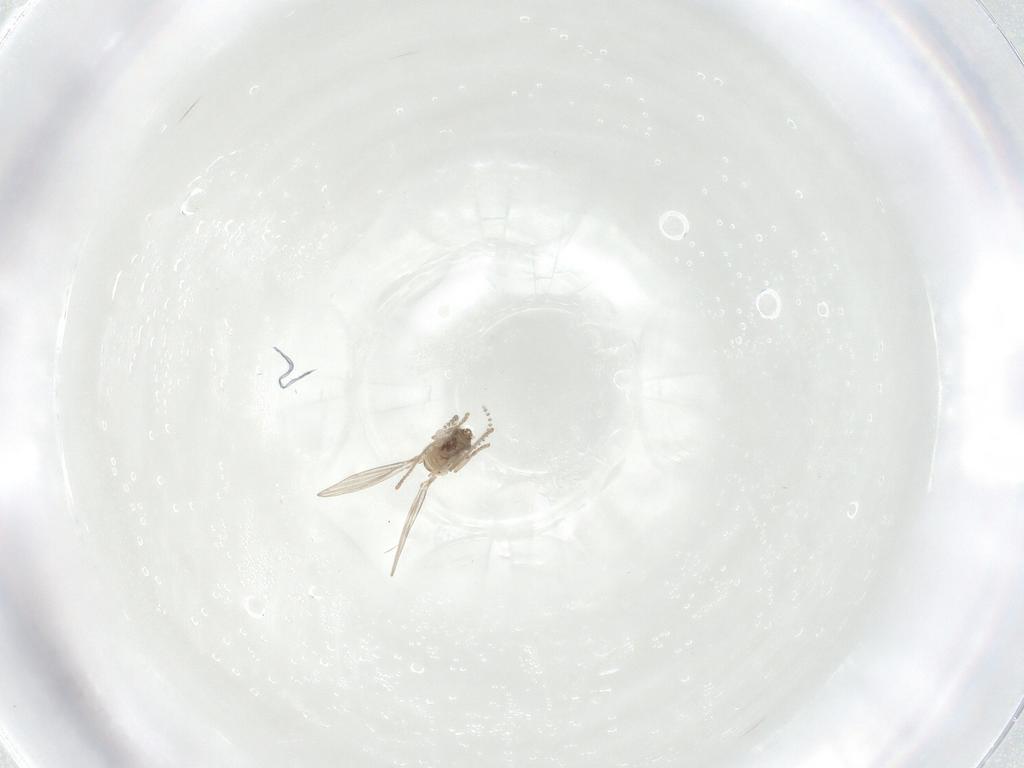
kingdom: Animalia
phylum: Arthropoda
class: Insecta
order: Diptera
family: Psychodidae
